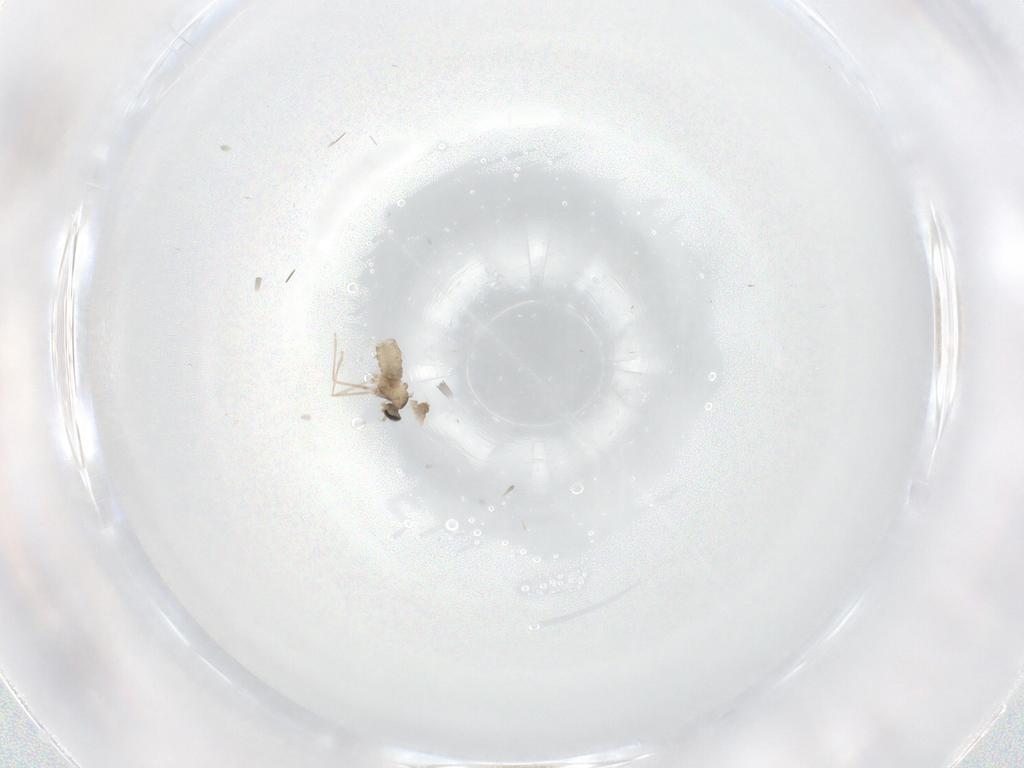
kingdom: Animalia
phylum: Arthropoda
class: Insecta
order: Diptera
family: Cecidomyiidae
